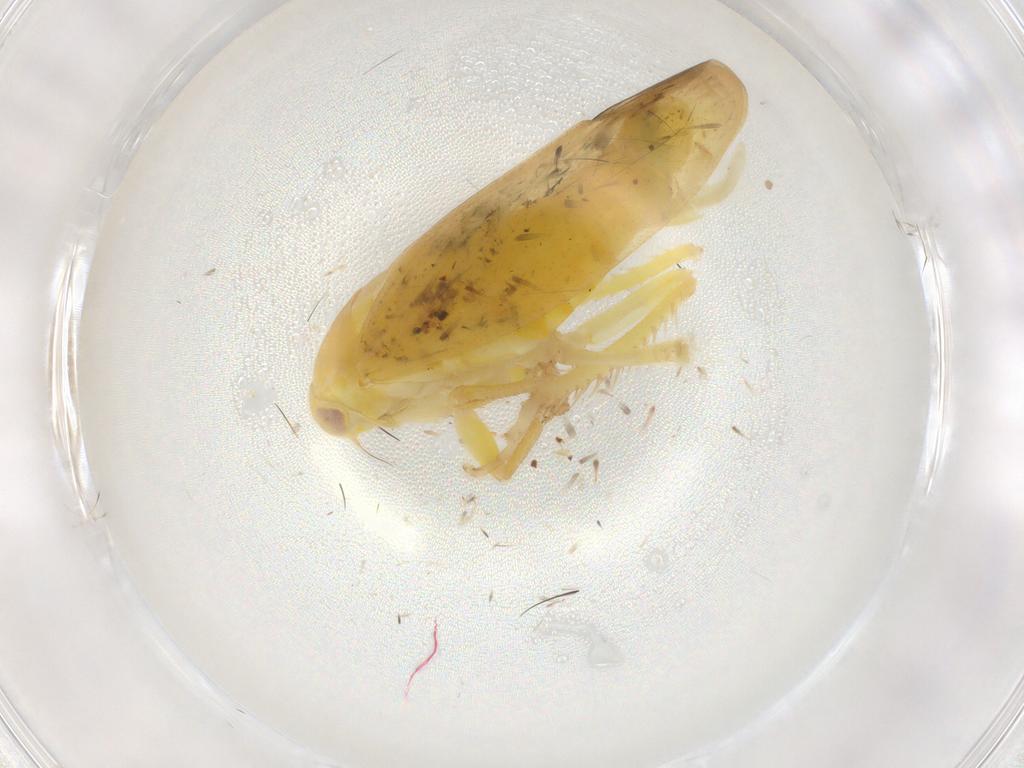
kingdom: Animalia
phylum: Arthropoda
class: Insecta
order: Hemiptera
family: Cicadellidae
